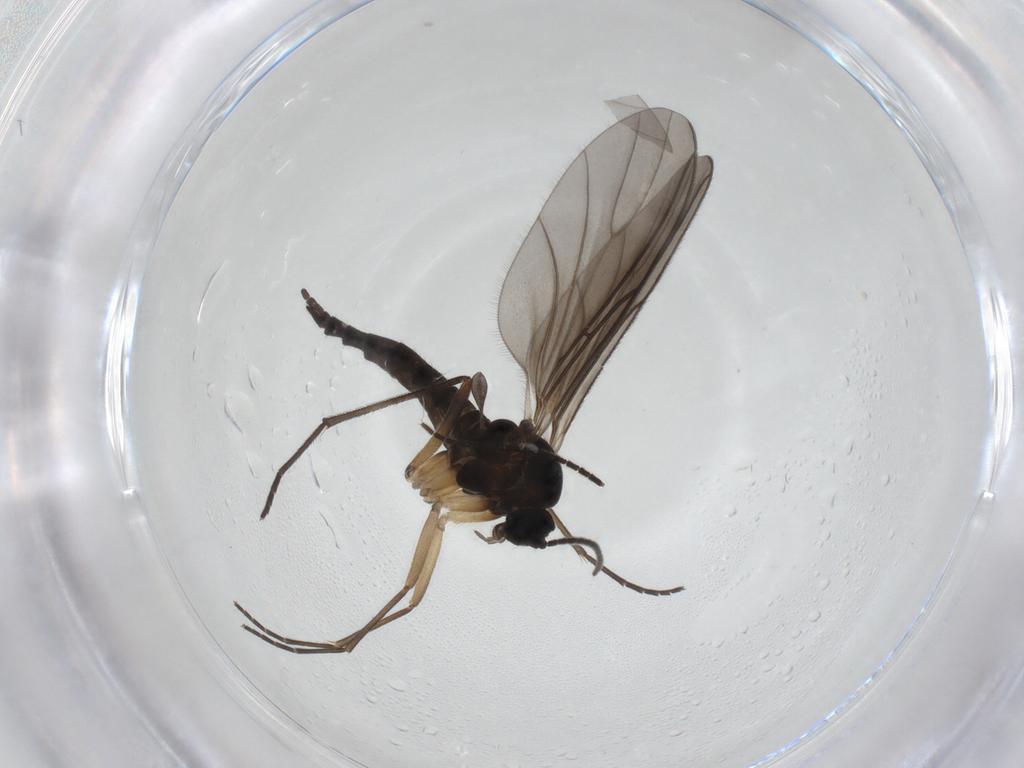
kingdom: Animalia
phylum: Arthropoda
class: Insecta
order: Diptera
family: Sciaridae
